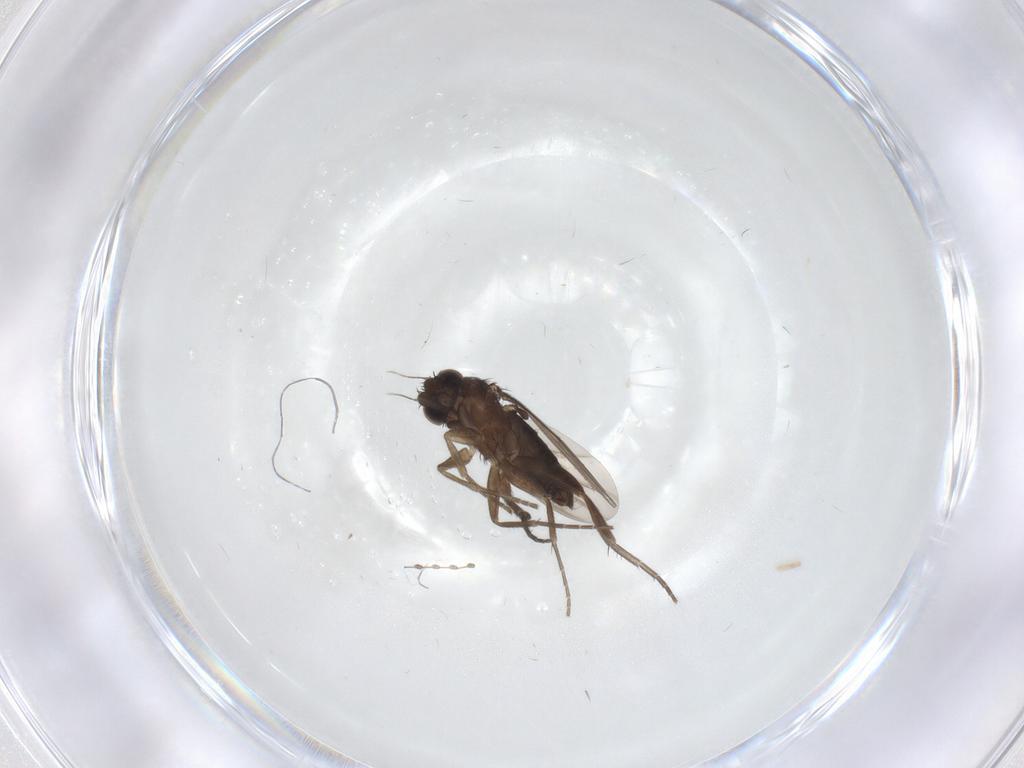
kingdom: Animalia
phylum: Arthropoda
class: Insecta
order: Diptera
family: Phoridae
